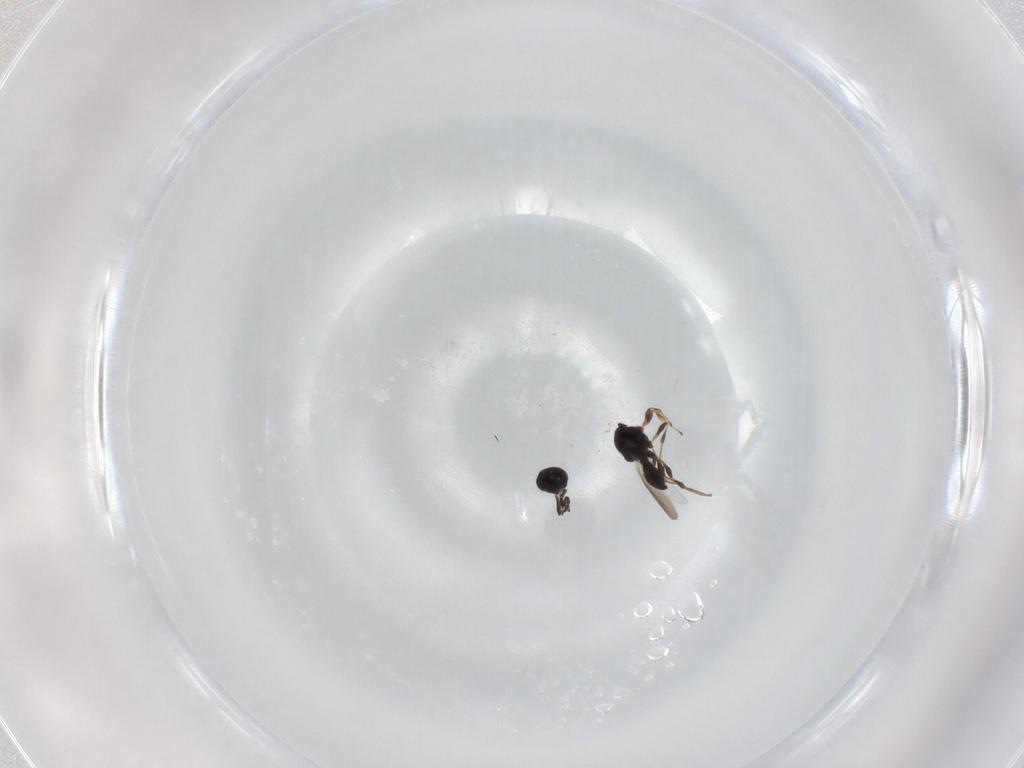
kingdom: Animalia
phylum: Arthropoda
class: Insecta
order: Hymenoptera
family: Platygastridae
